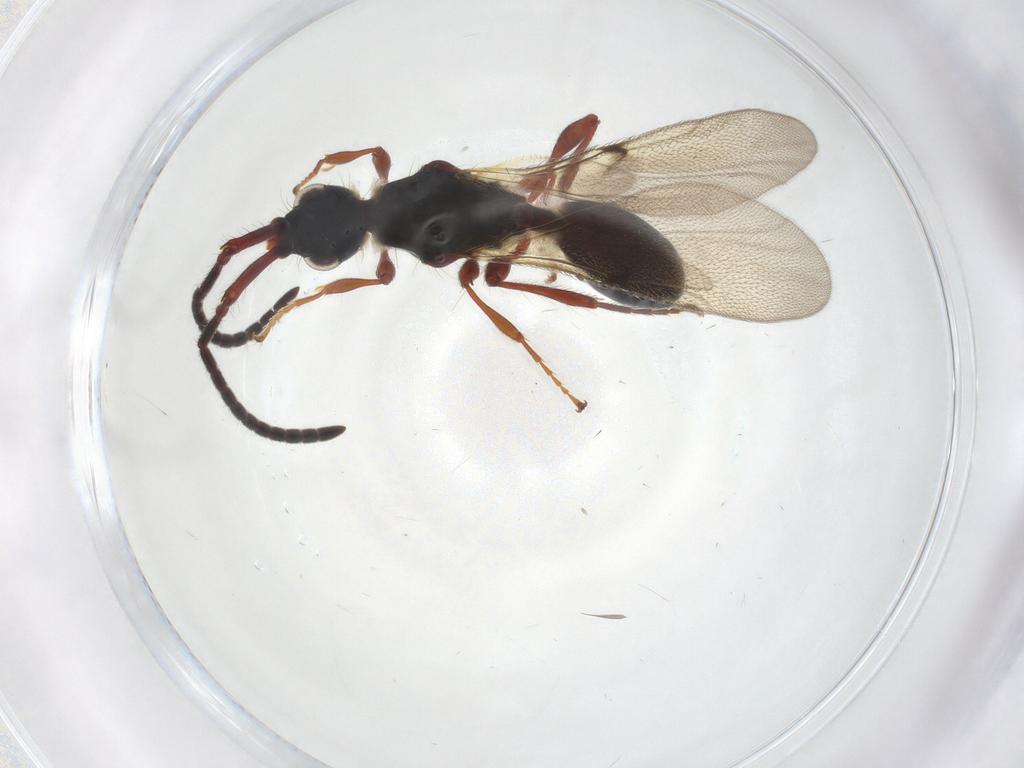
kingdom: Animalia
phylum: Arthropoda
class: Insecta
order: Hymenoptera
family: Diapriidae
